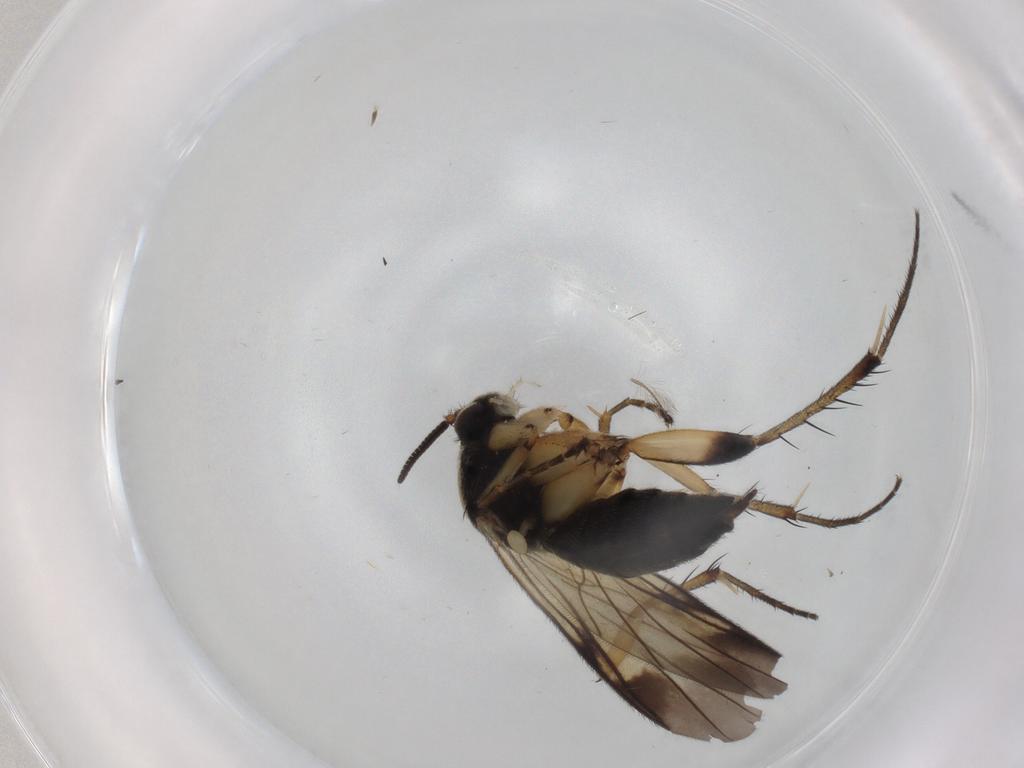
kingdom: Animalia
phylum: Arthropoda
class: Insecta
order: Diptera
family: Mycetophilidae
